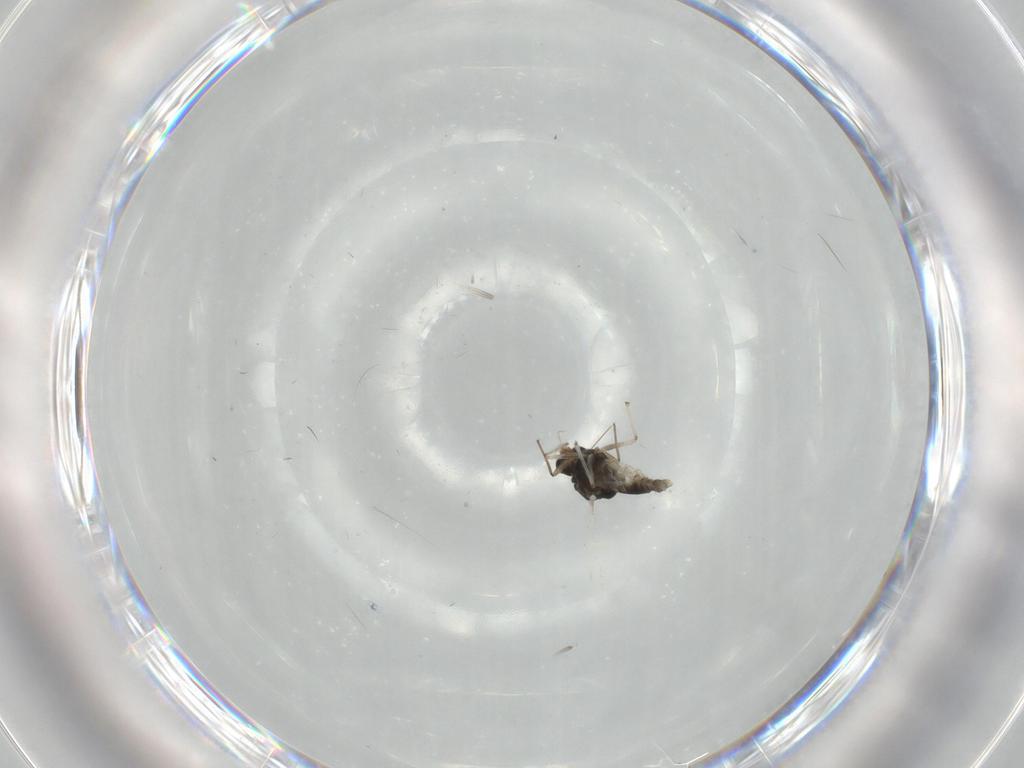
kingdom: Animalia
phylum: Arthropoda
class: Insecta
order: Diptera
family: Chironomidae
